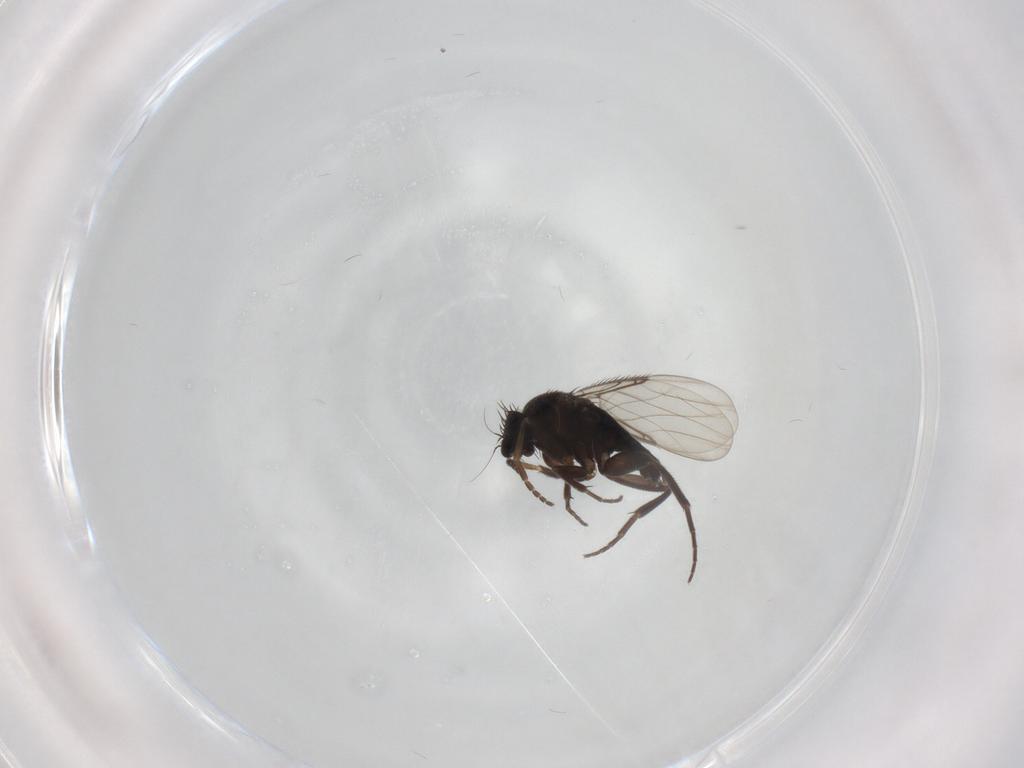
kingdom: Animalia
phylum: Arthropoda
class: Insecta
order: Diptera
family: Phoridae
